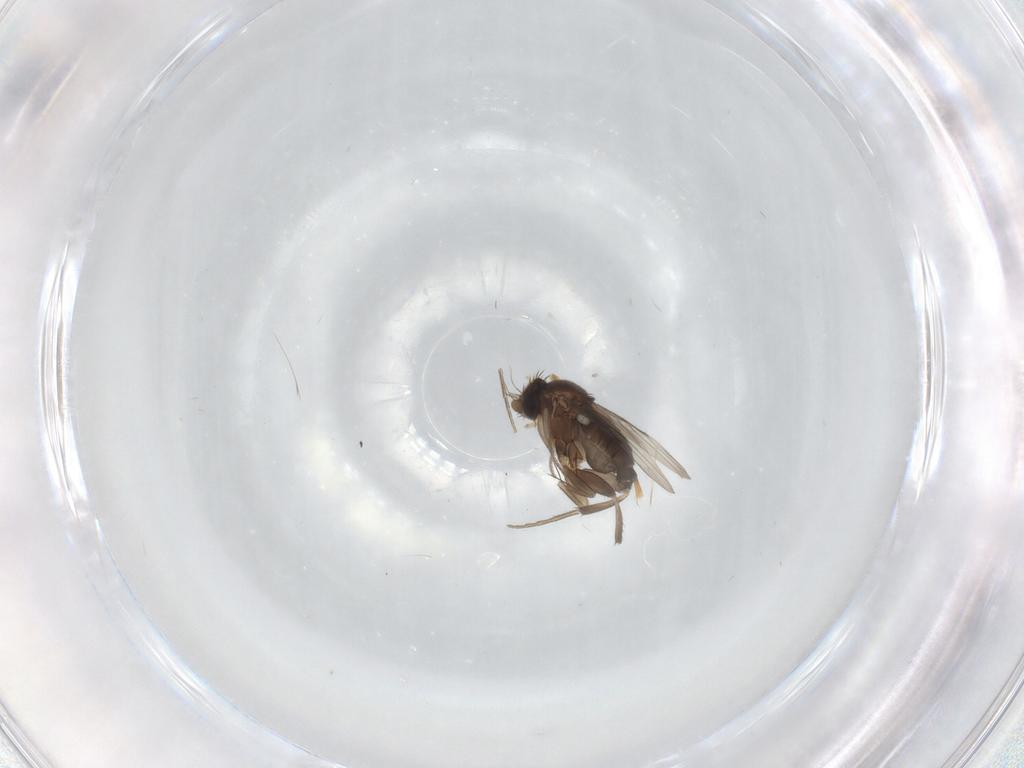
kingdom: Animalia
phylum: Arthropoda
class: Insecta
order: Diptera
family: Phoridae
